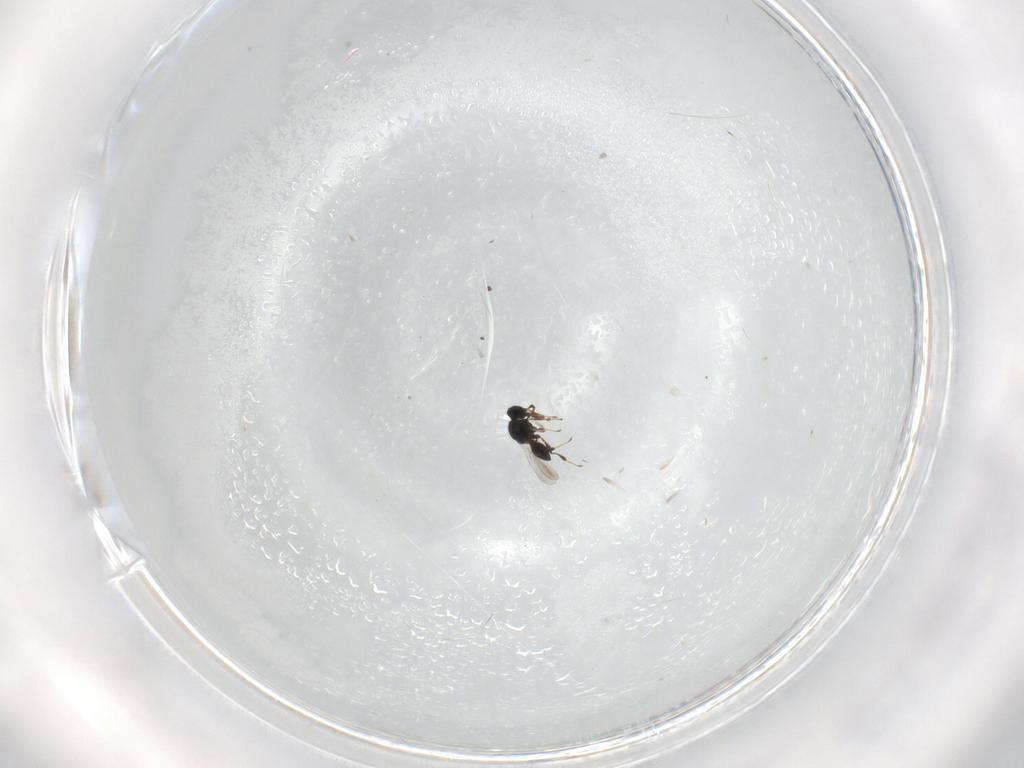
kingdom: Animalia
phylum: Arthropoda
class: Insecta
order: Hymenoptera
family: Platygastridae
